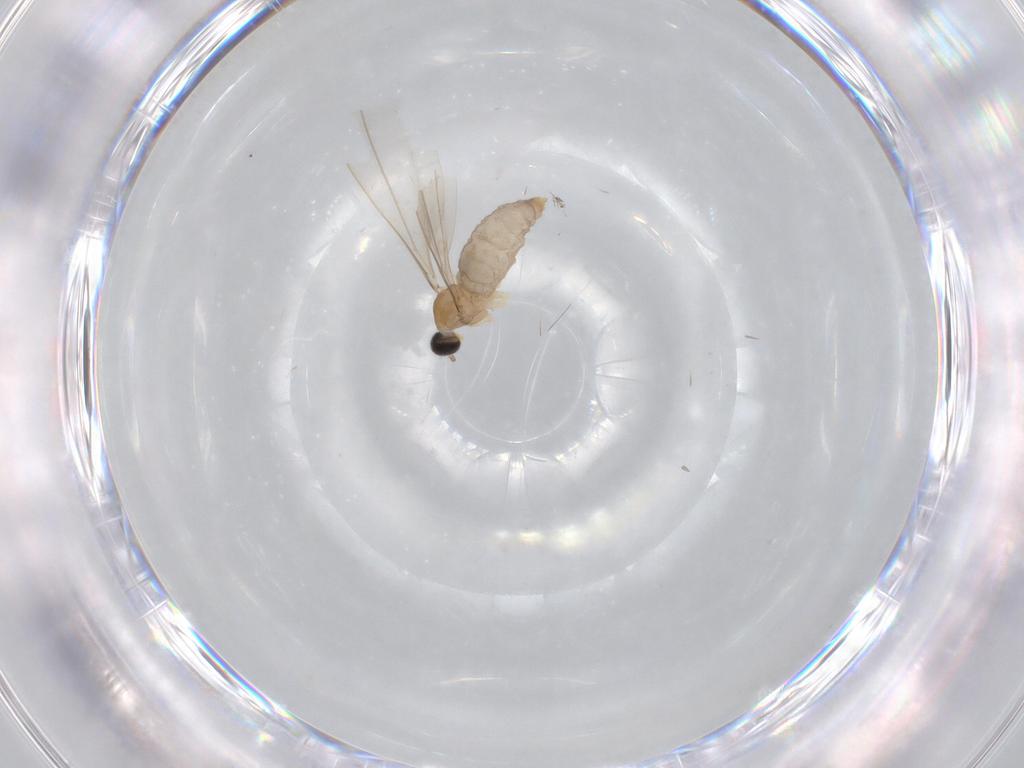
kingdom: Animalia
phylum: Arthropoda
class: Insecta
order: Diptera
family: Cecidomyiidae
